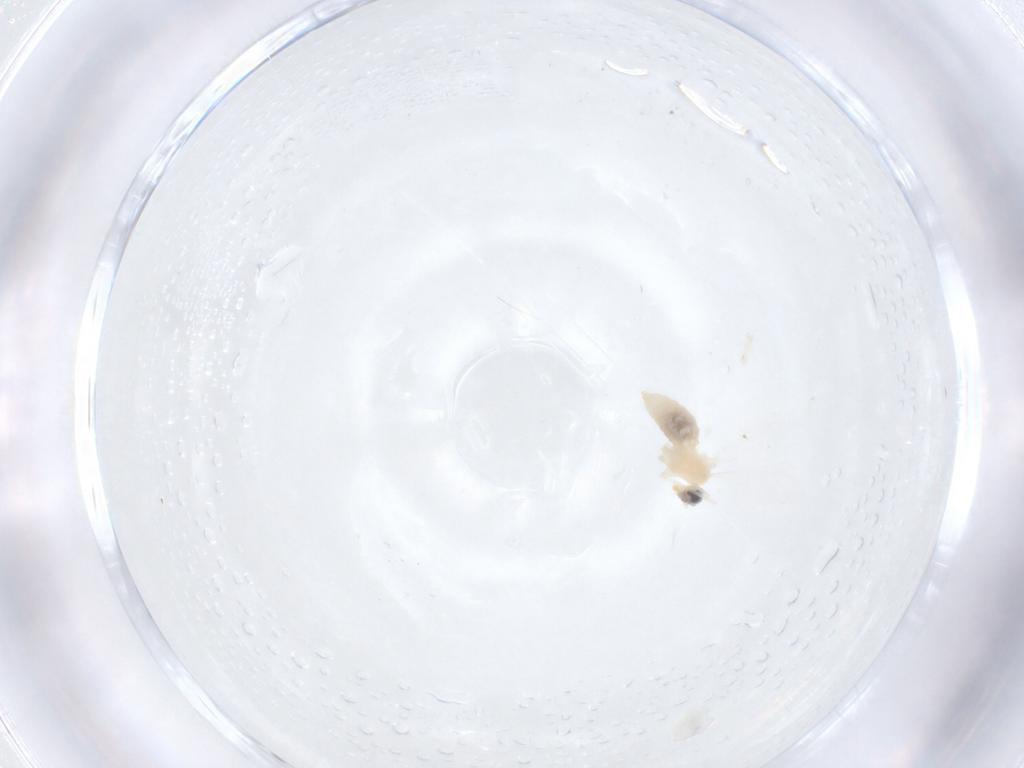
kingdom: Animalia
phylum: Arthropoda
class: Insecta
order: Diptera
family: Cecidomyiidae
